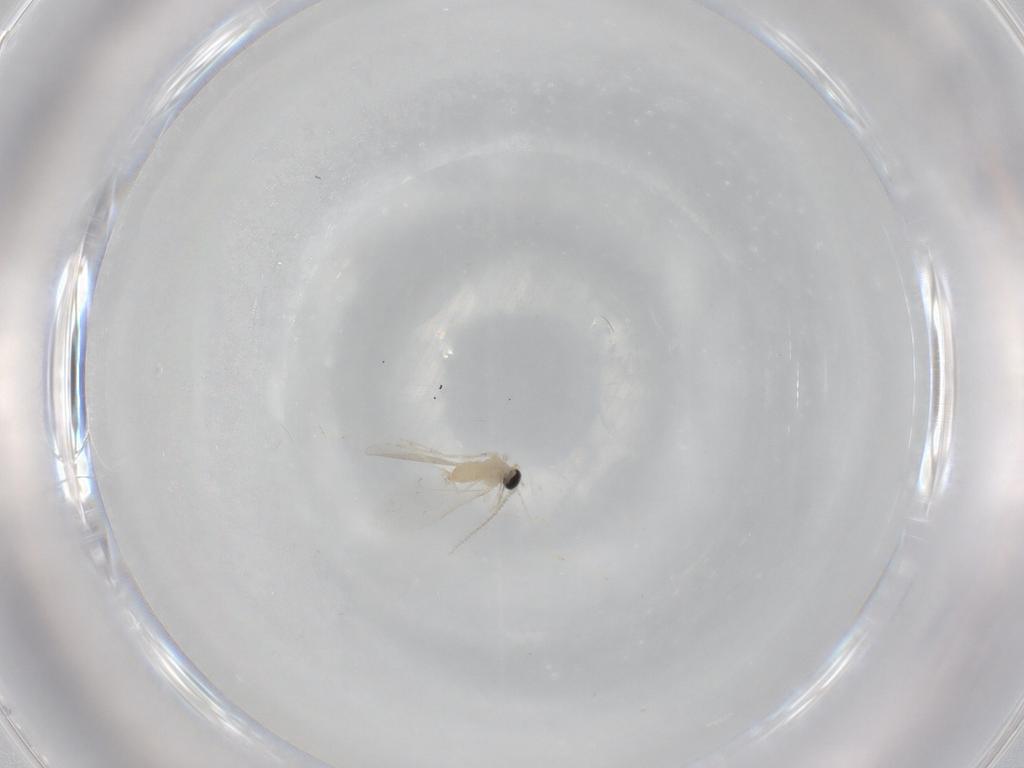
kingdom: Animalia
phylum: Arthropoda
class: Insecta
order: Diptera
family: Cecidomyiidae
